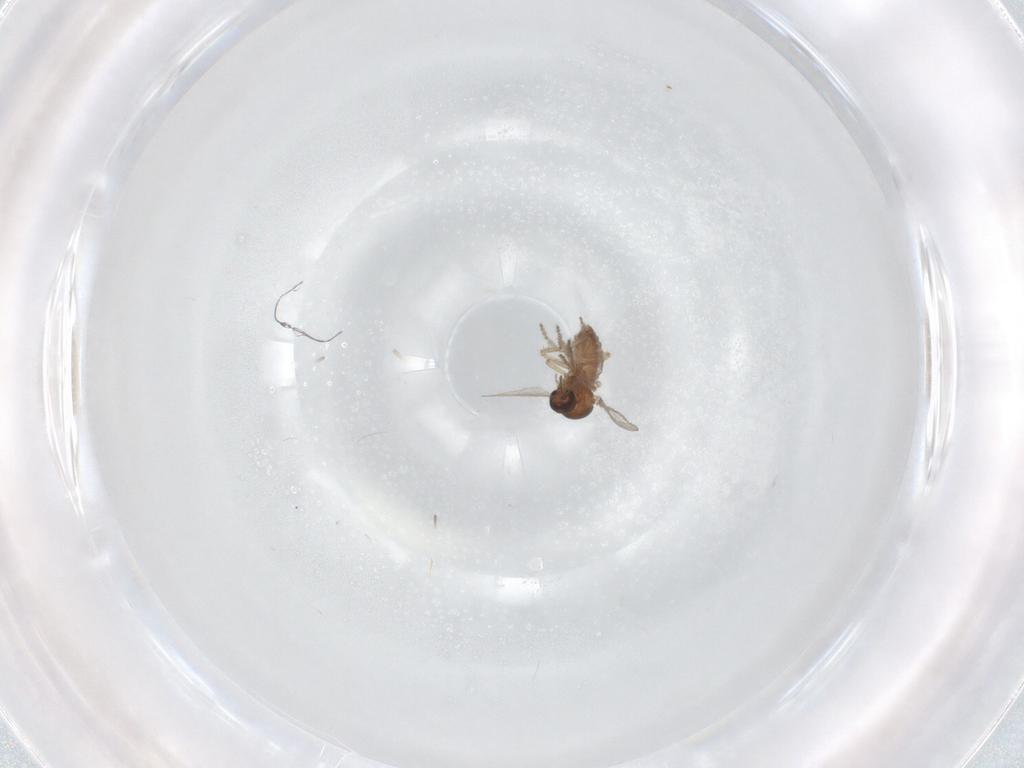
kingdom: Animalia
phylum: Arthropoda
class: Insecta
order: Diptera
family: Ceratopogonidae
